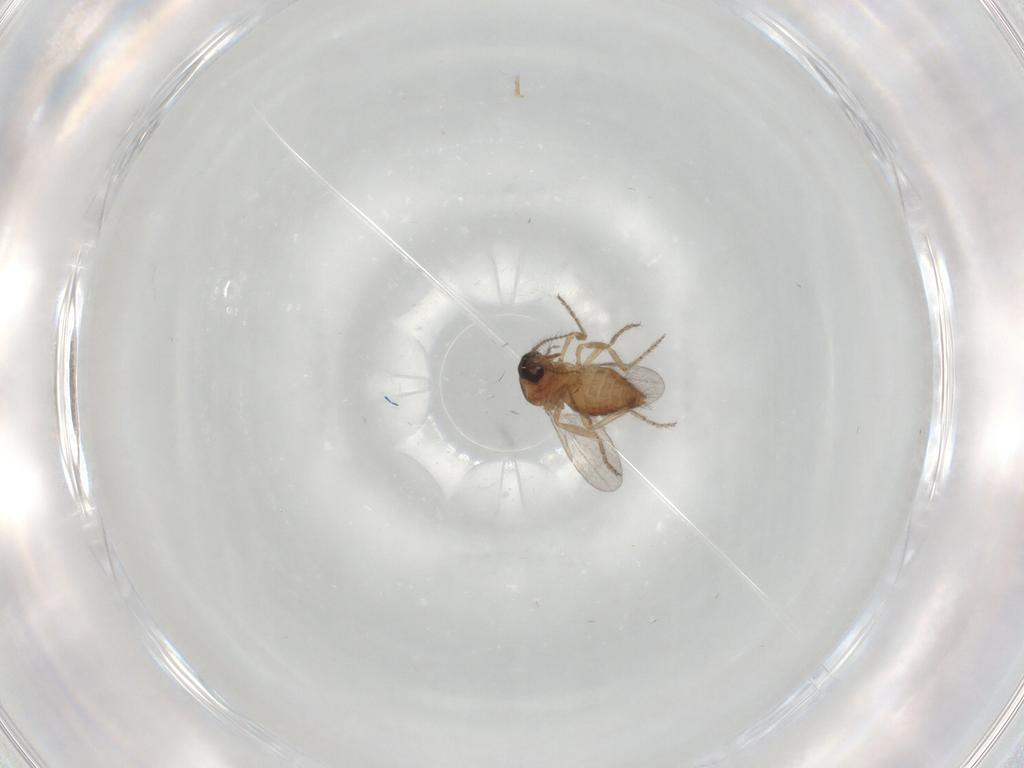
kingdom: Animalia
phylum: Arthropoda
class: Insecta
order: Diptera
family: Ceratopogonidae
